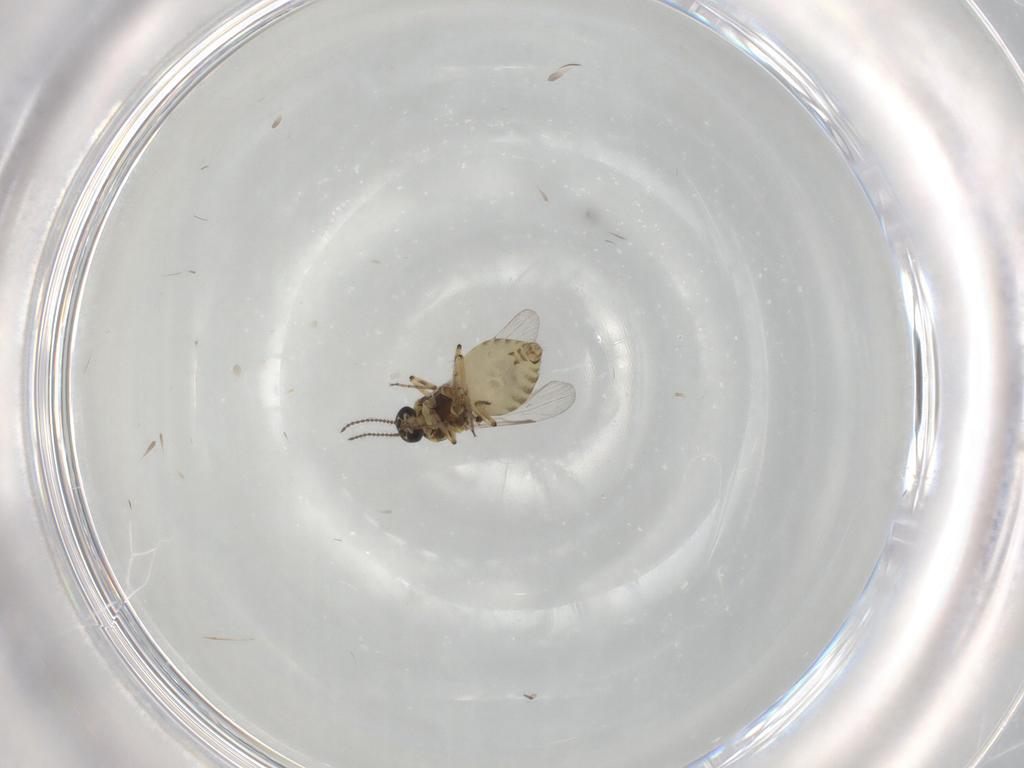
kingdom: Animalia
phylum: Arthropoda
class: Insecta
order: Diptera
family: Ceratopogonidae
